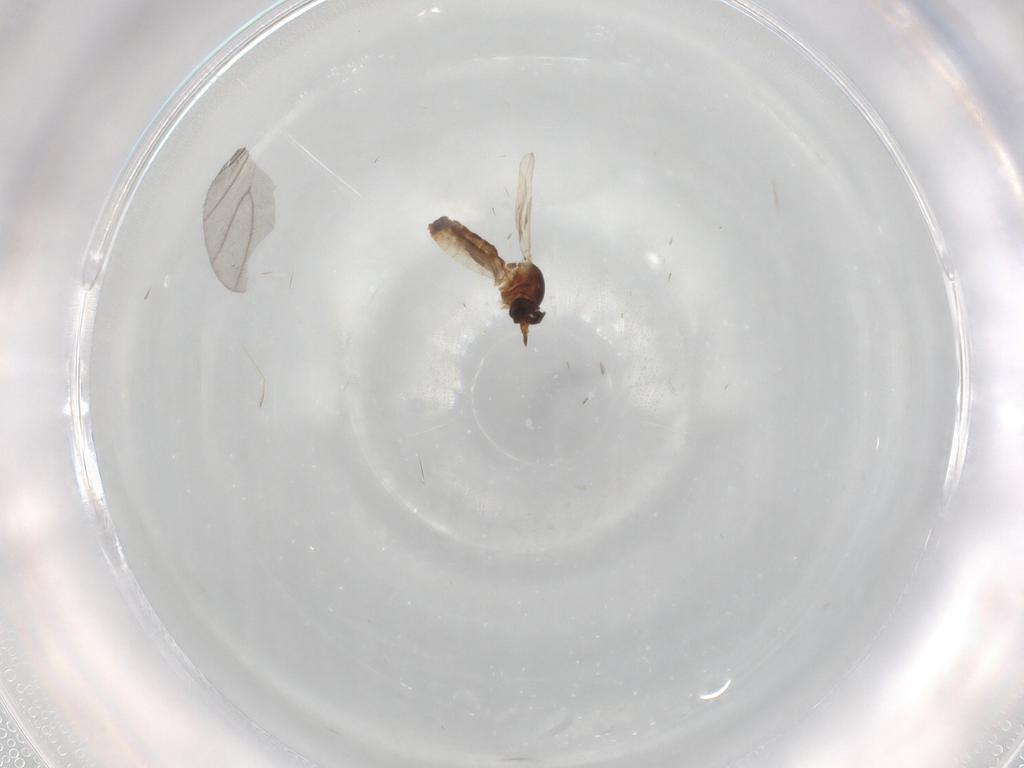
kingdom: Animalia
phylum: Arthropoda
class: Insecta
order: Diptera
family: Ceratopogonidae
